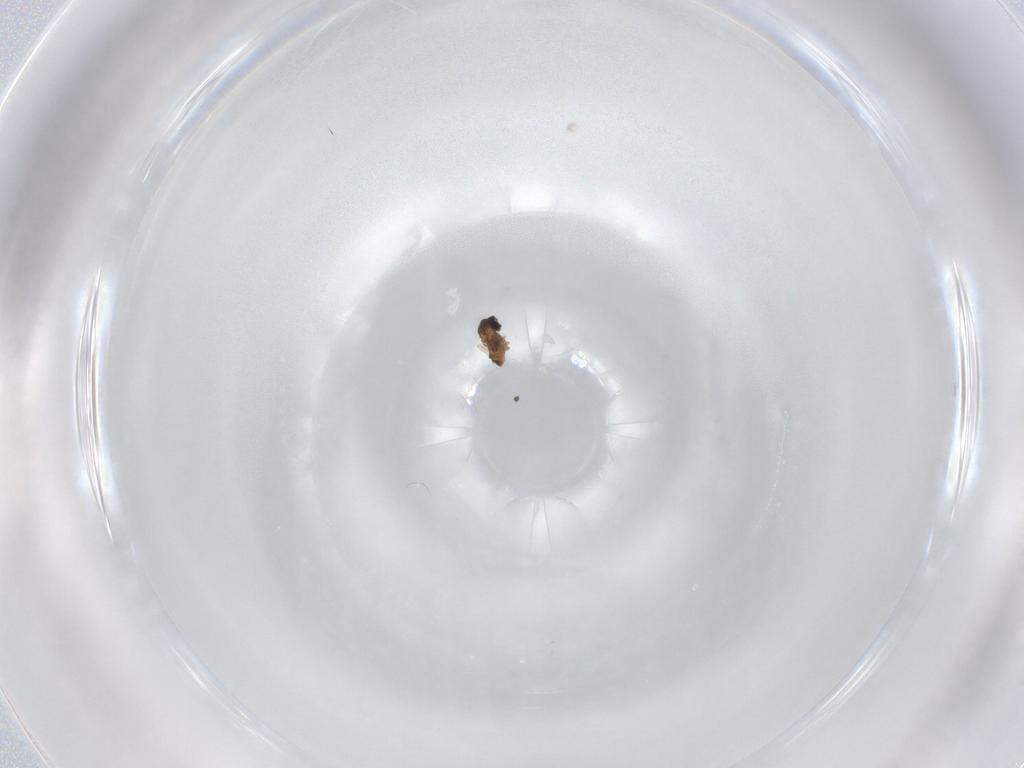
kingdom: Animalia
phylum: Arthropoda
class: Insecta
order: Diptera
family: Cecidomyiidae
